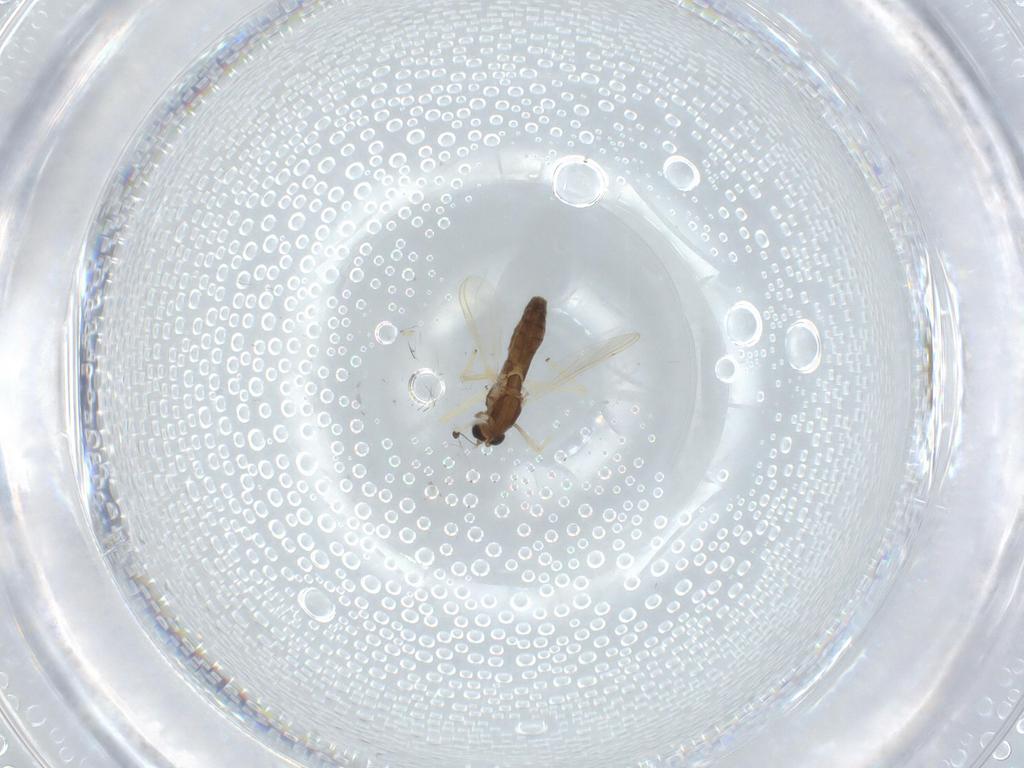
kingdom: Animalia
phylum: Arthropoda
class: Insecta
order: Diptera
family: Chironomidae
